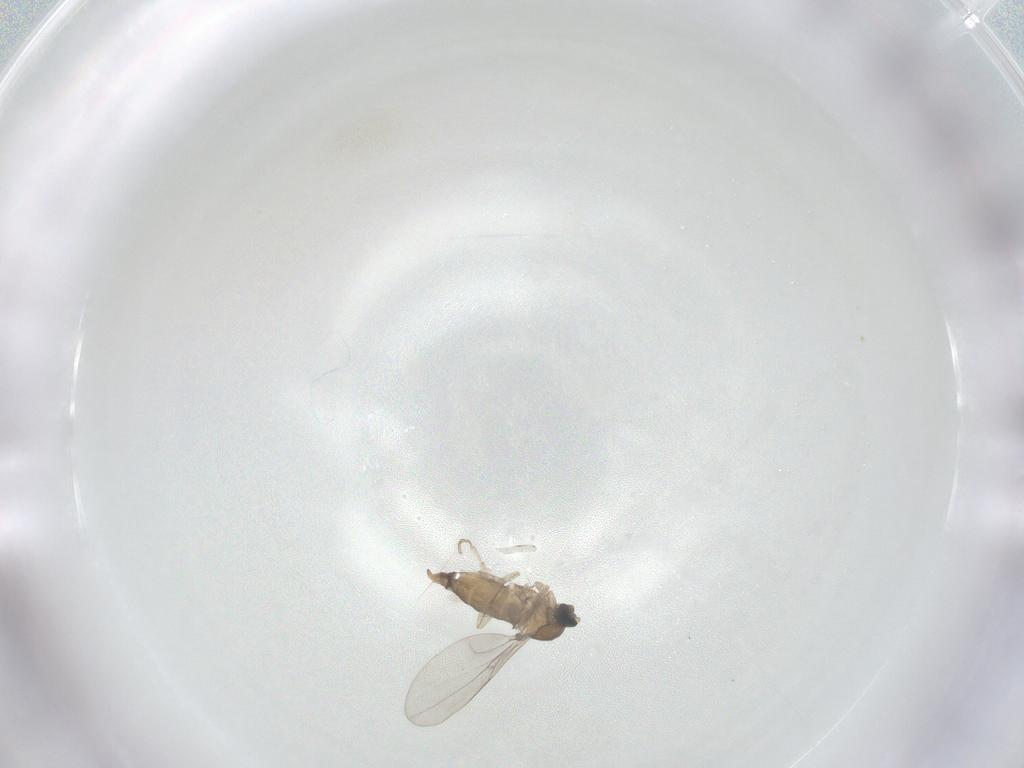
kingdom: Animalia
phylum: Arthropoda
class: Insecta
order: Diptera
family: Cecidomyiidae
